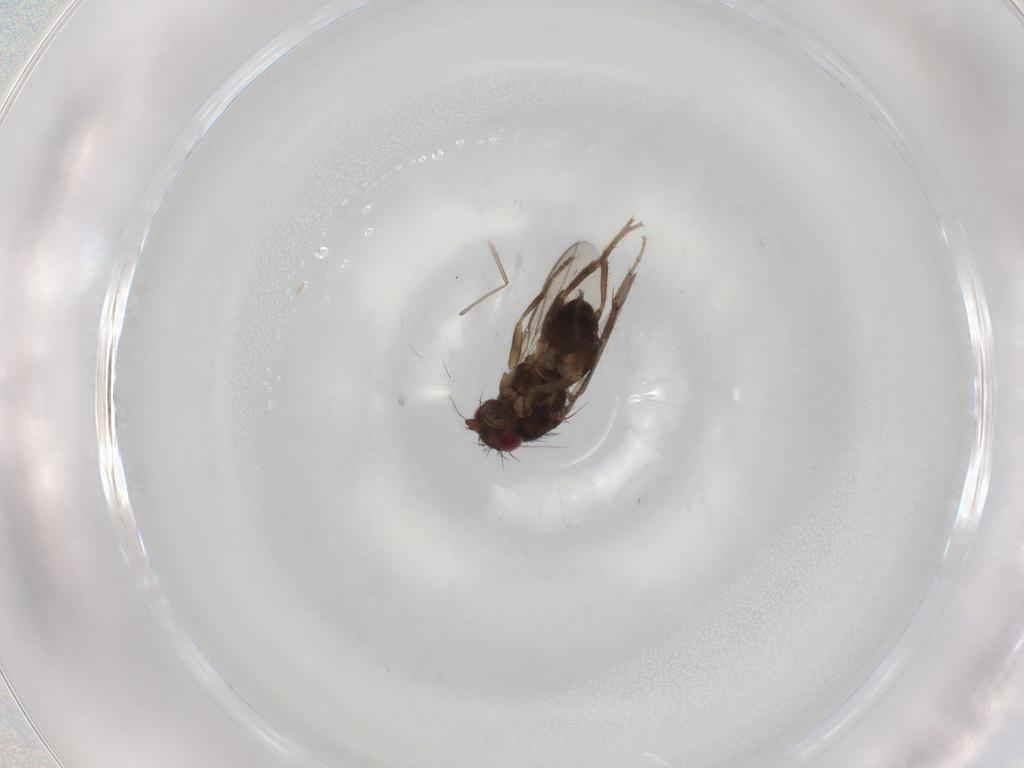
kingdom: Animalia
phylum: Arthropoda
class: Insecta
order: Diptera
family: Sphaeroceridae
